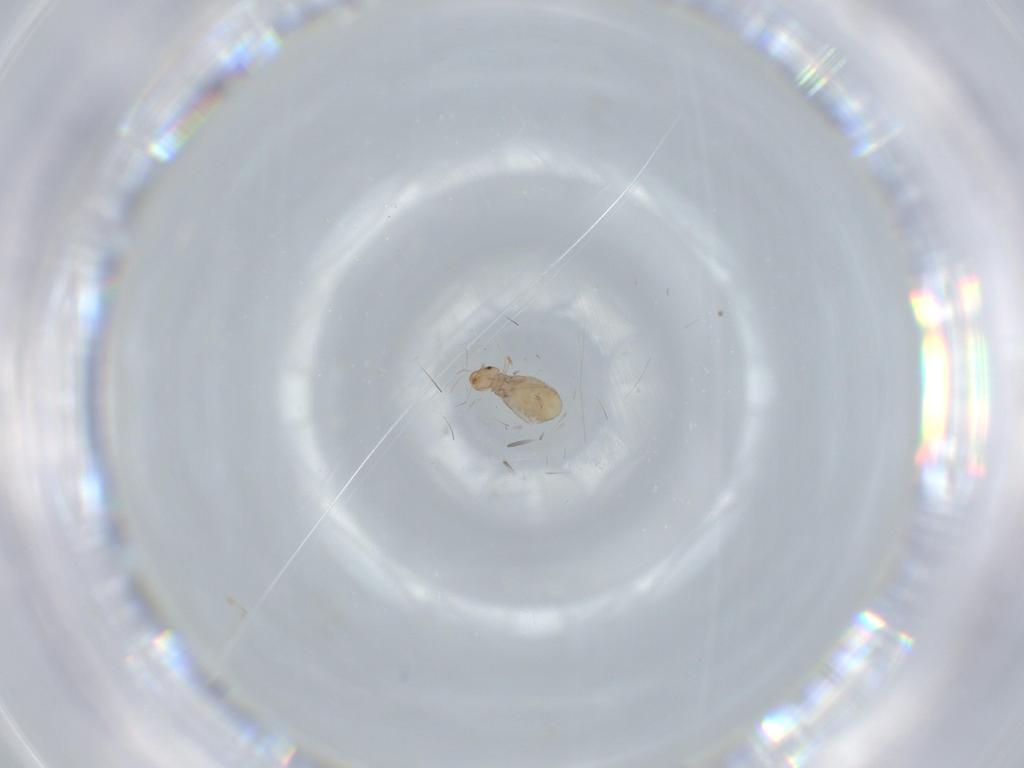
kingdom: Animalia
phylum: Arthropoda
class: Insecta
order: Psocodea
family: Liposcelididae
